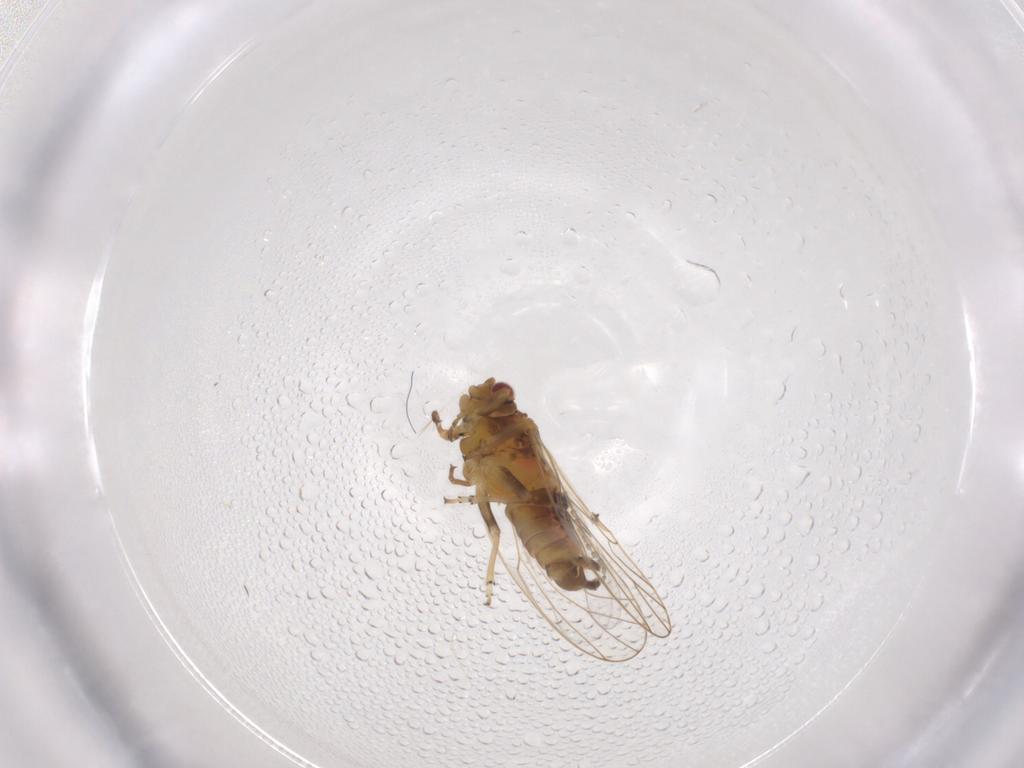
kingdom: Animalia
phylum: Arthropoda
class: Insecta
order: Hemiptera
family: Psyllidae
